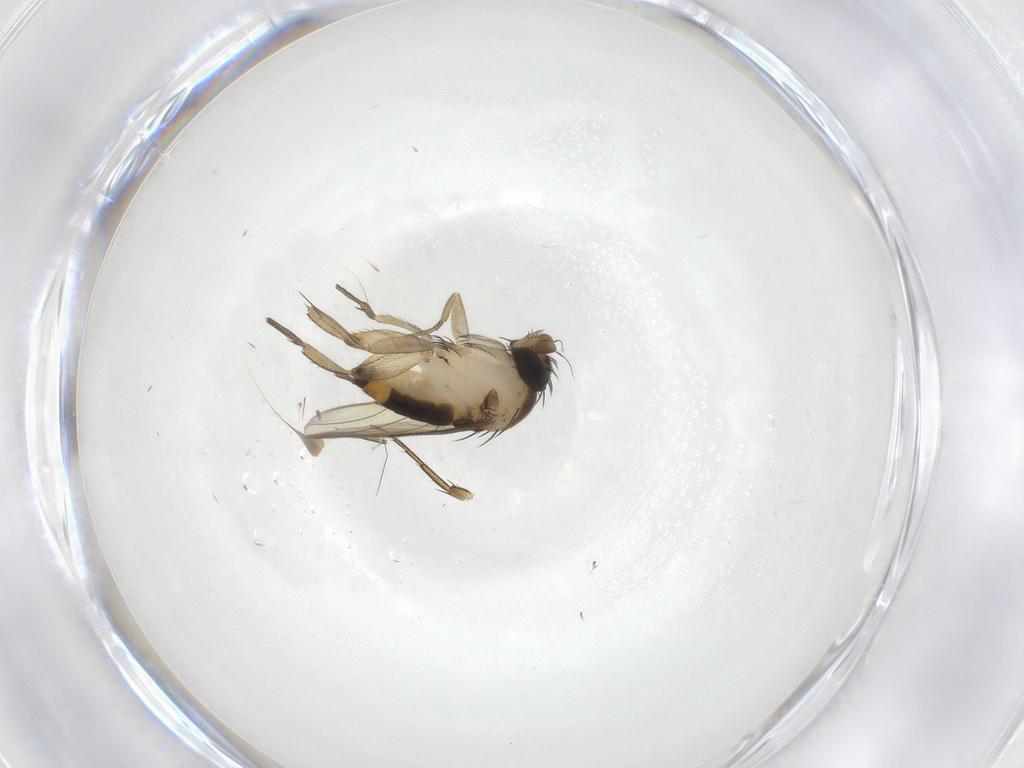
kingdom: Animalia
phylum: Arthropoda
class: Insecta
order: Diptera
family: Phoridae
